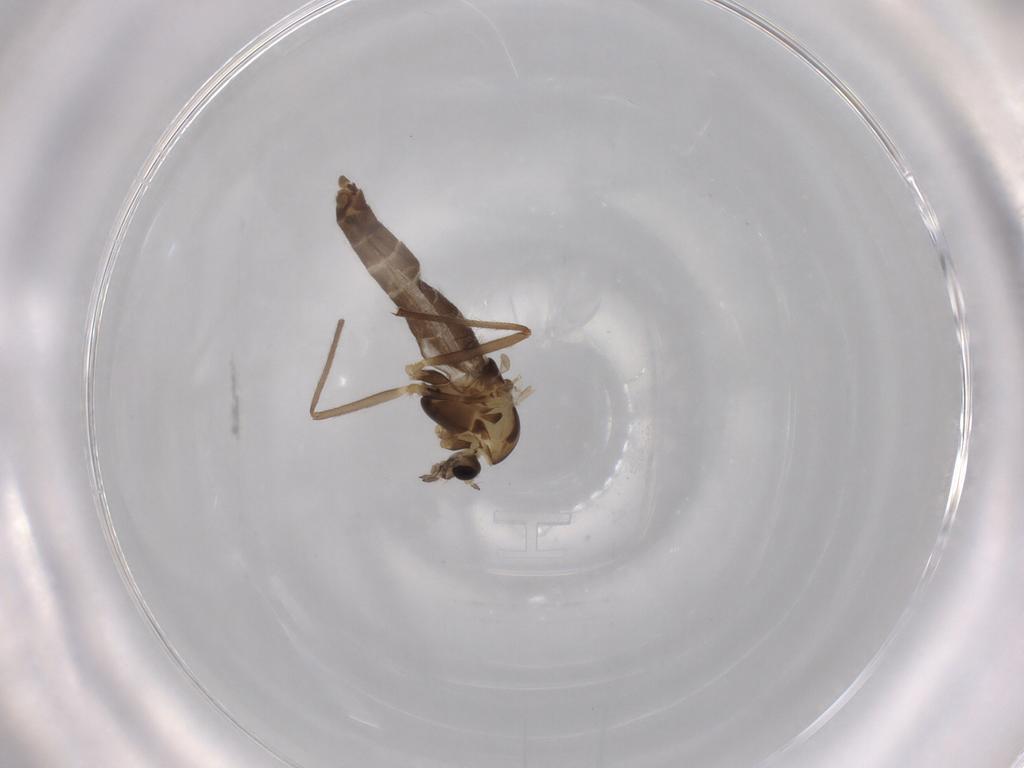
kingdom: Animalia
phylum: Arthropoda
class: Insecta
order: Diptera
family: Chironomidae
